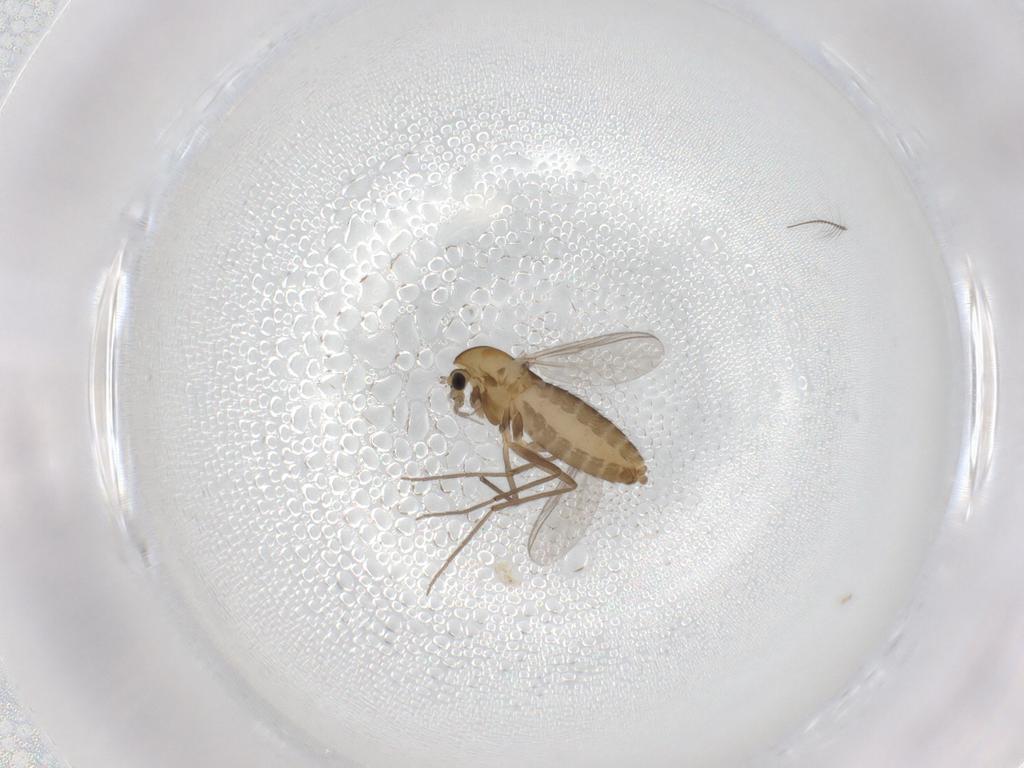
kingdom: Animalia
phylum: Arthropoda
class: Insecta
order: Diptera
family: Chironomidae
